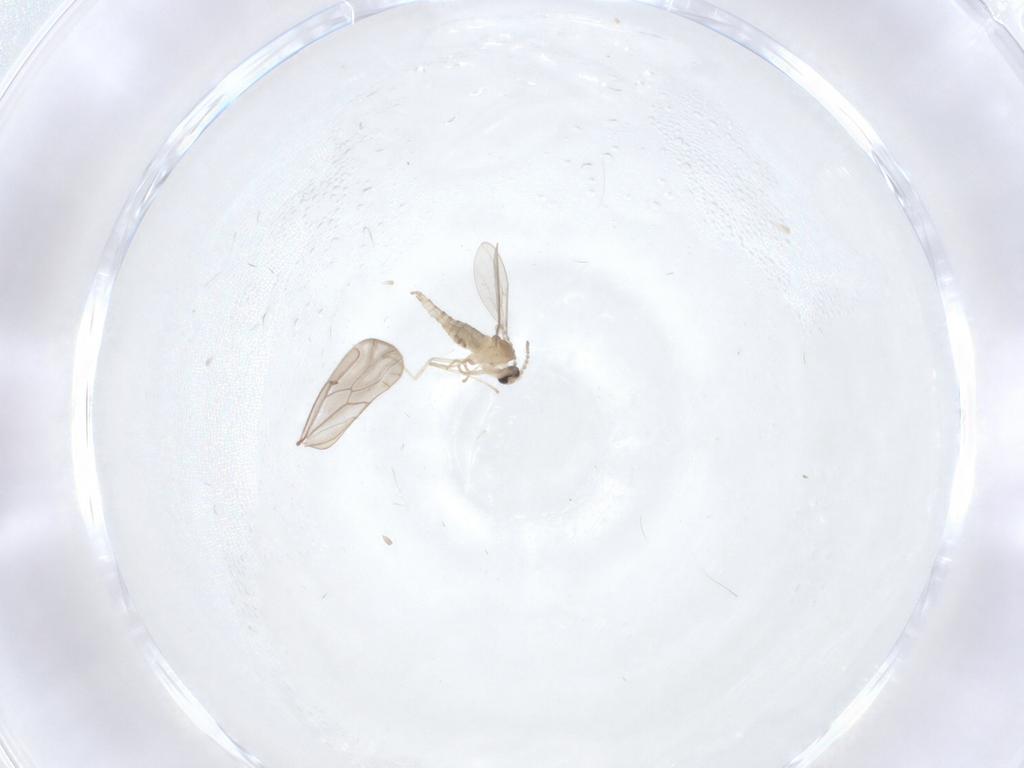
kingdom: Animalia
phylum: Arthropoda
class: Insecta
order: Diptera
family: Cecidomyiidae
